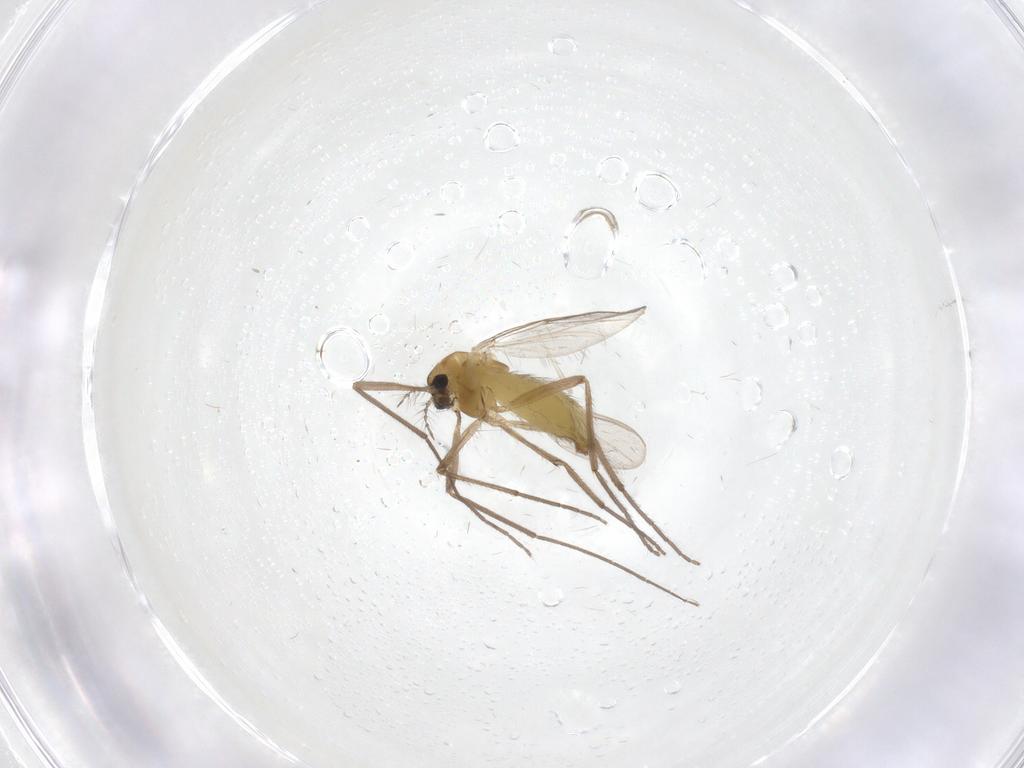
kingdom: Animalia
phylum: Arthropoda
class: Insecta
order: Diptera
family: Chironomidae
